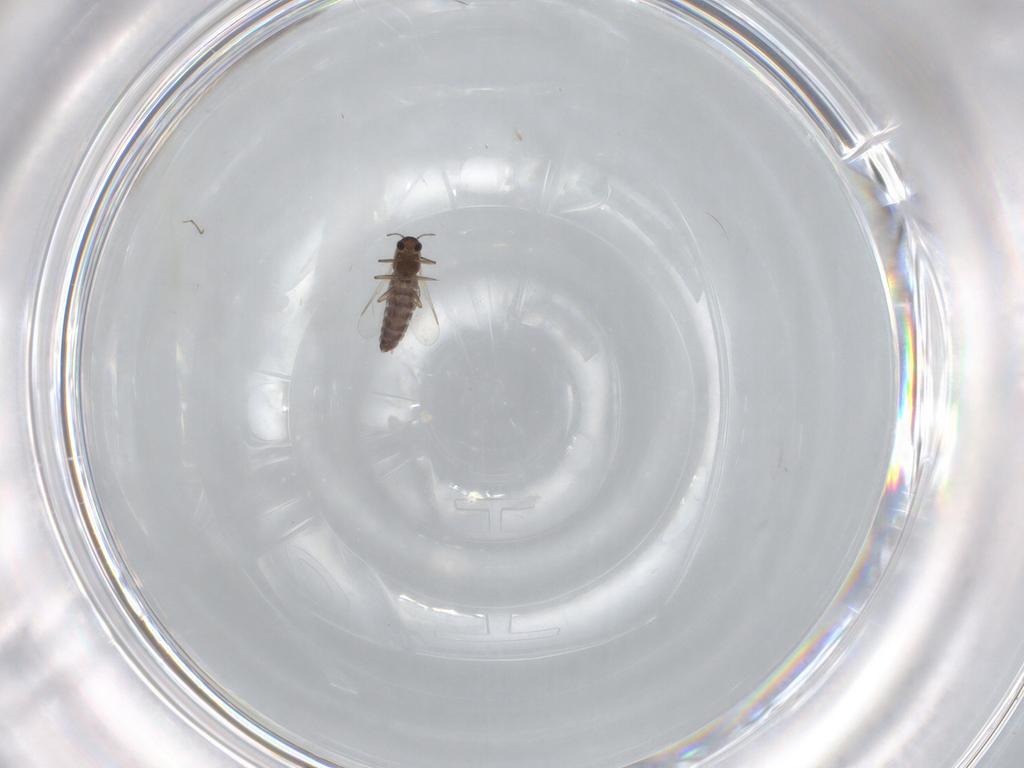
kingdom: Animalia
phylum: Arthropoda
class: Insecta
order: Diptera
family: Chironomidae
